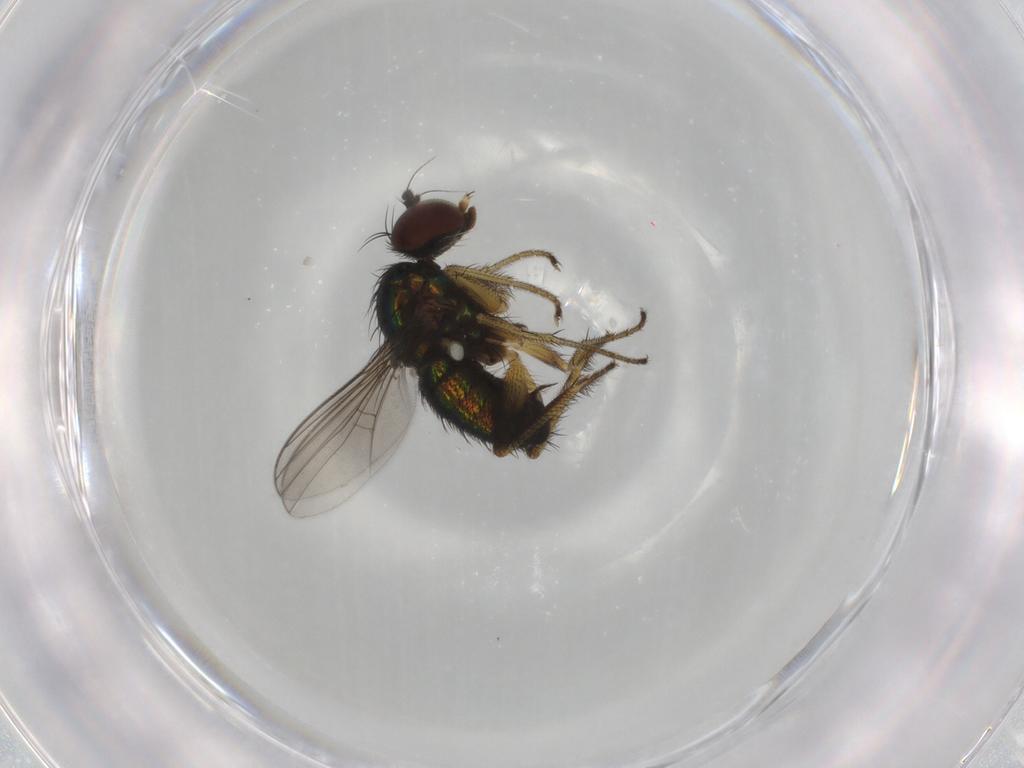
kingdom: Animalia
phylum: Arthropoda
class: Insecta
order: Diptera
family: Dolichopodidae
